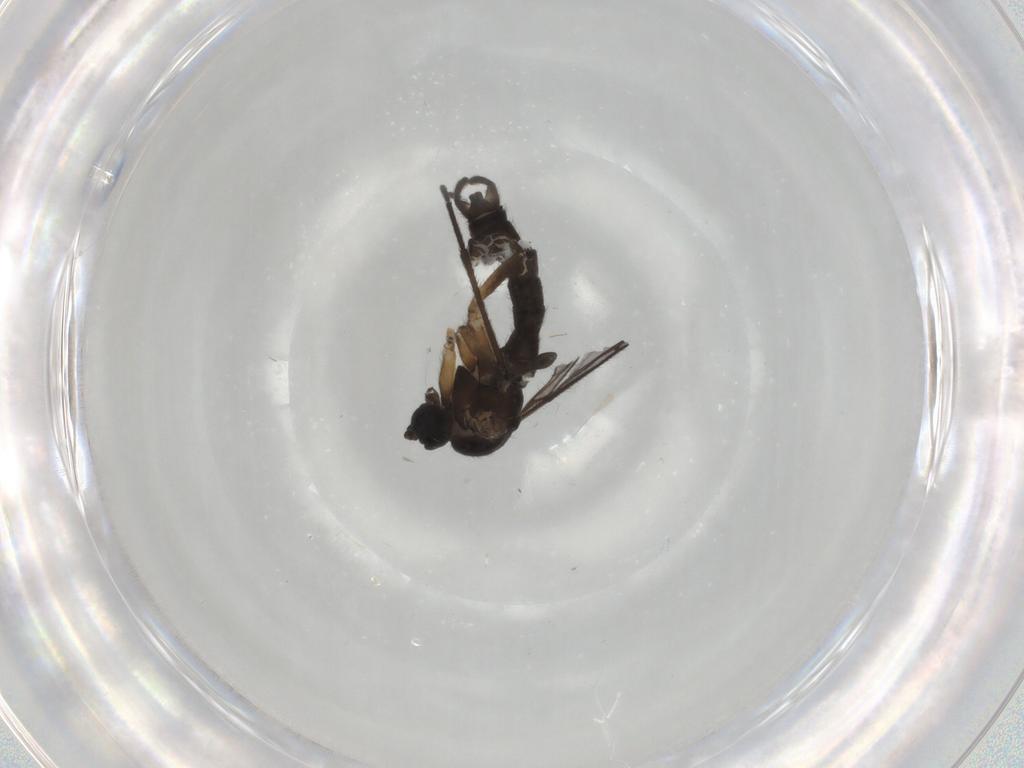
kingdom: Animalia
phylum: Arthropoda
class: Insecta
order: Diptera
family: Sciaridae
